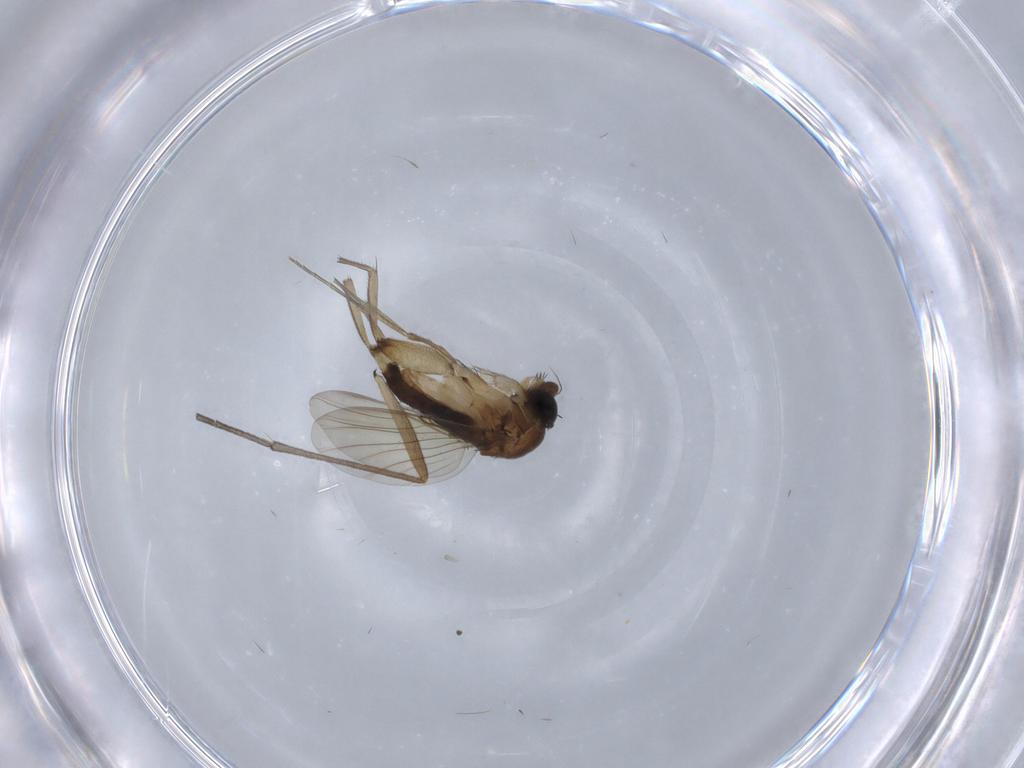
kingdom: Animalia
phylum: Arthropoda
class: Insecta
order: Diptera
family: Phoridae
